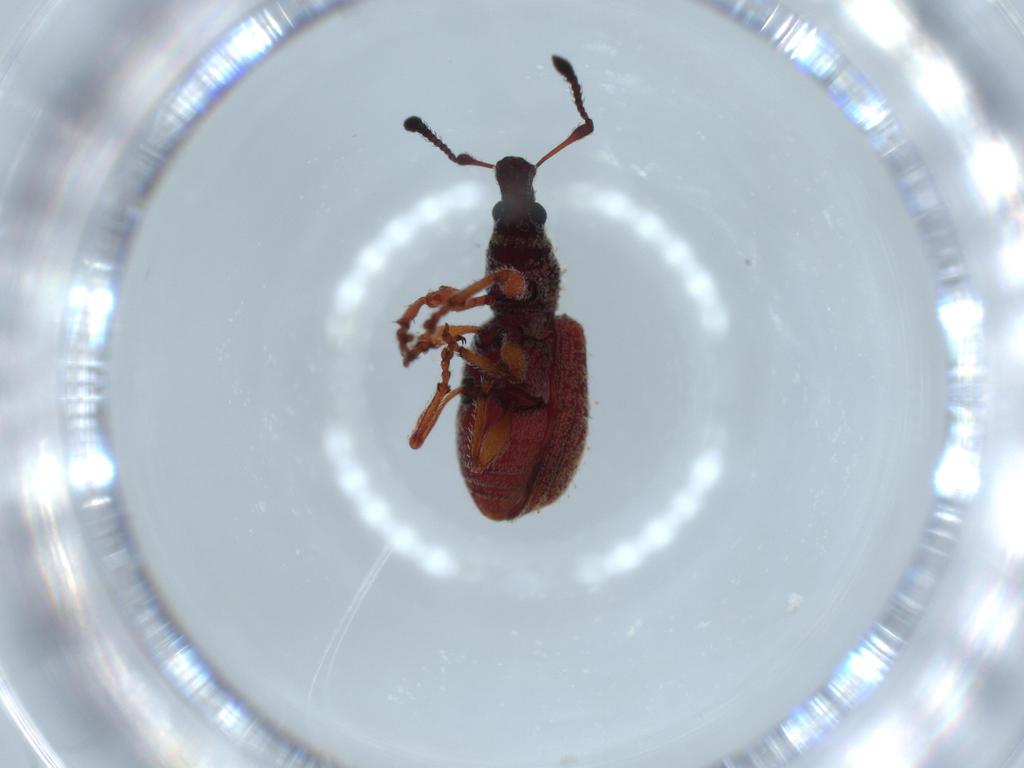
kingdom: Animalia
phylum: Arthropoda
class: Insecta
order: Coleoptera
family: Curculionidae
